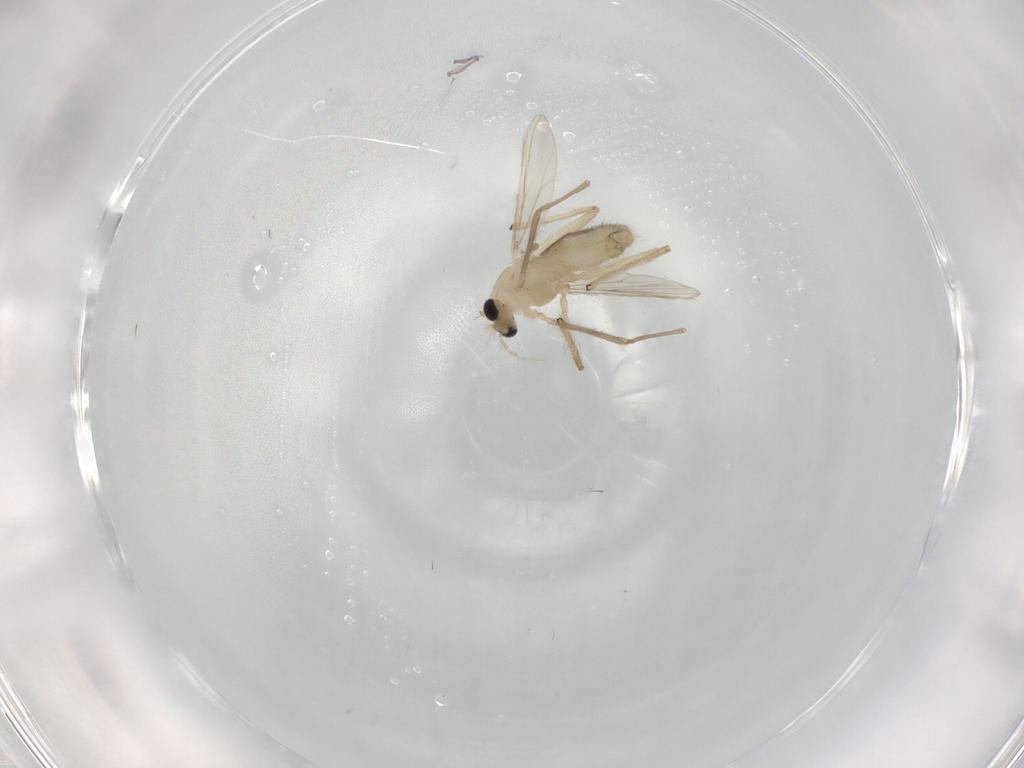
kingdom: Animalia
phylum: Arthropoda
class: Insecta
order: Diptera
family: Chironomidae
